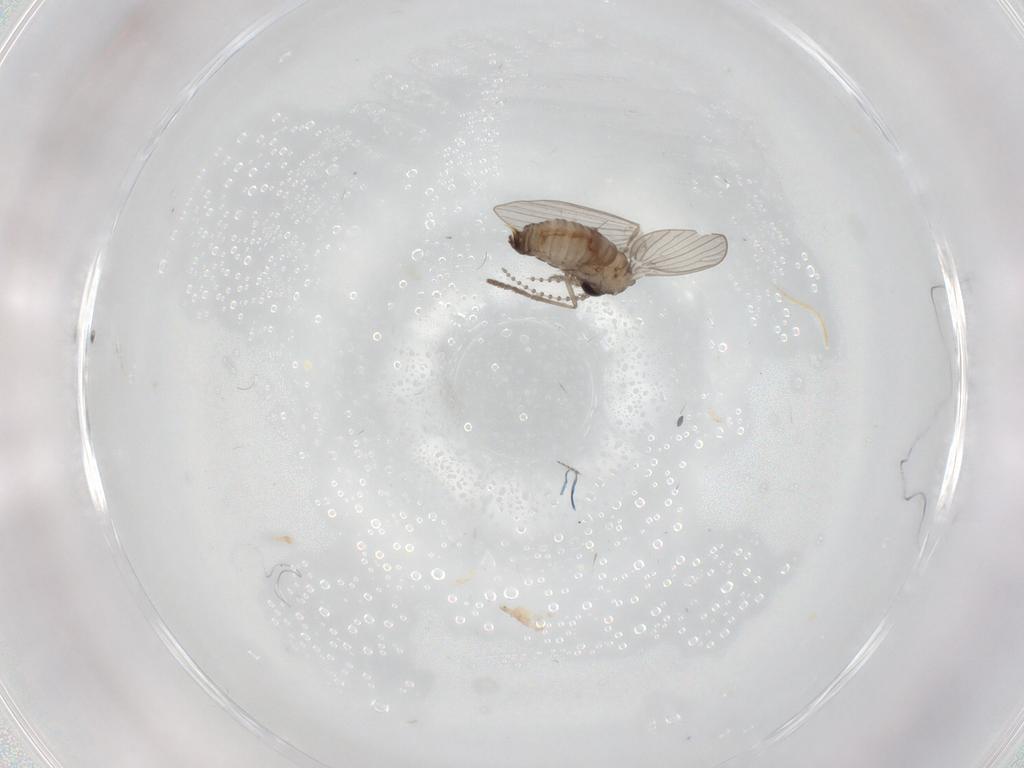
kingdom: Animalia
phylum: Arthropoda
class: Insecta
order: Diptera
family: Psychodidae
